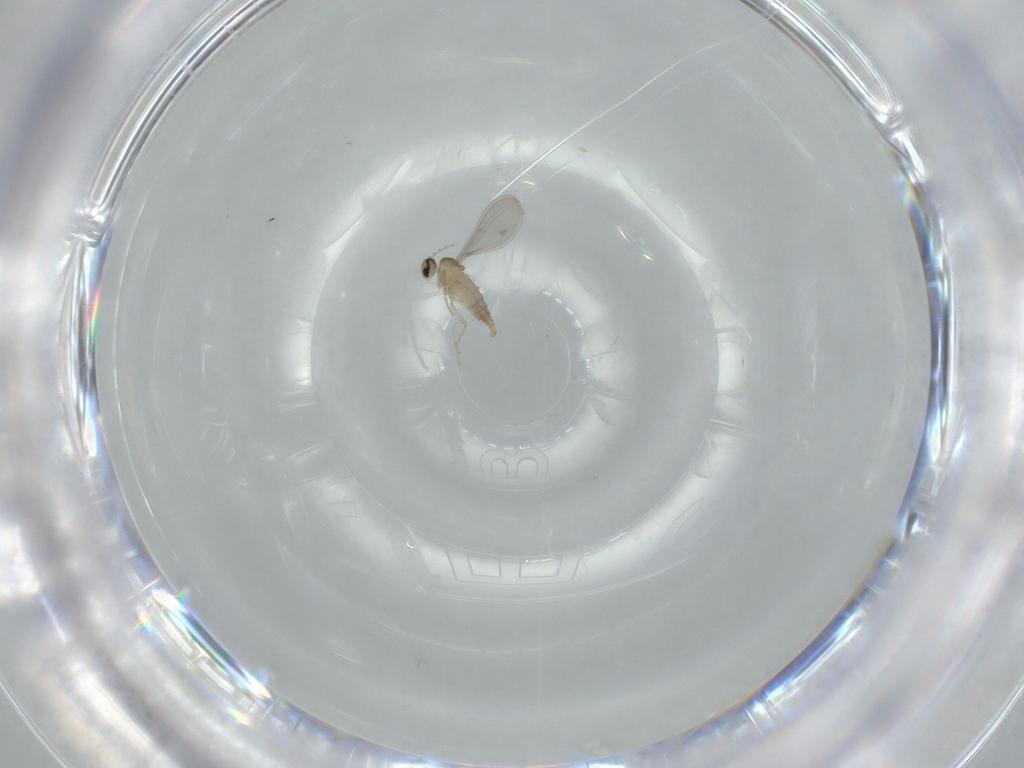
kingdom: Animalia
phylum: Arthropoda
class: Insecta
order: Diptera
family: Cecidomyiidae
